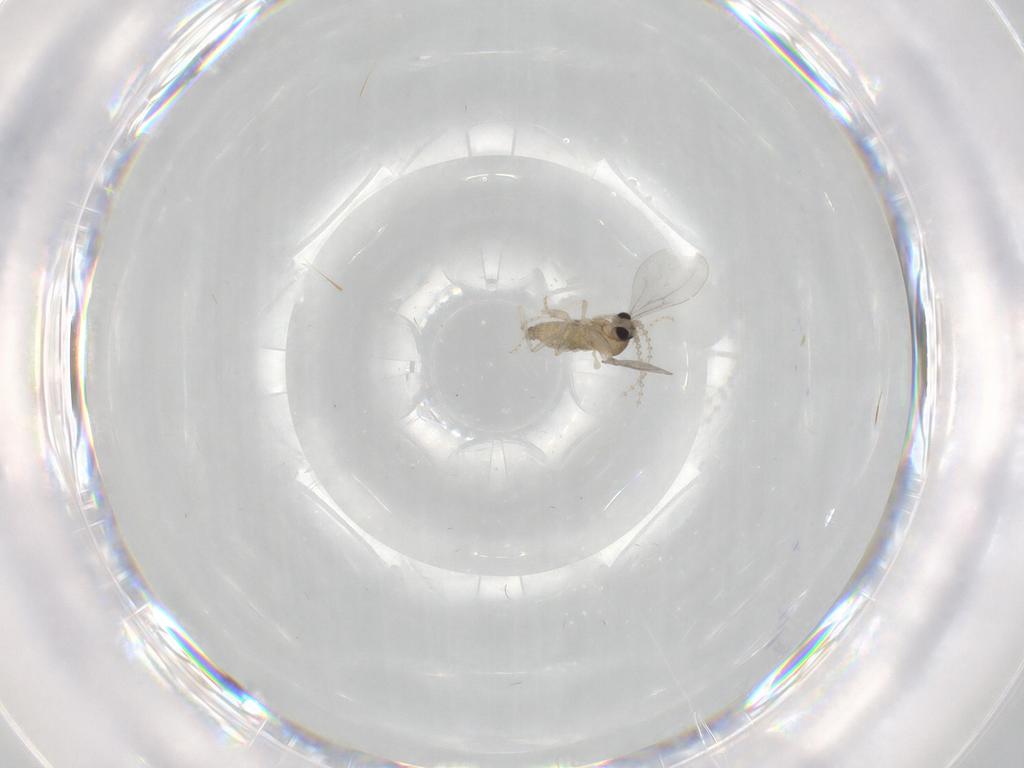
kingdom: Animalia
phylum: Arthropoda
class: Insecta
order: Diptera
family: Cecidomyiidae
